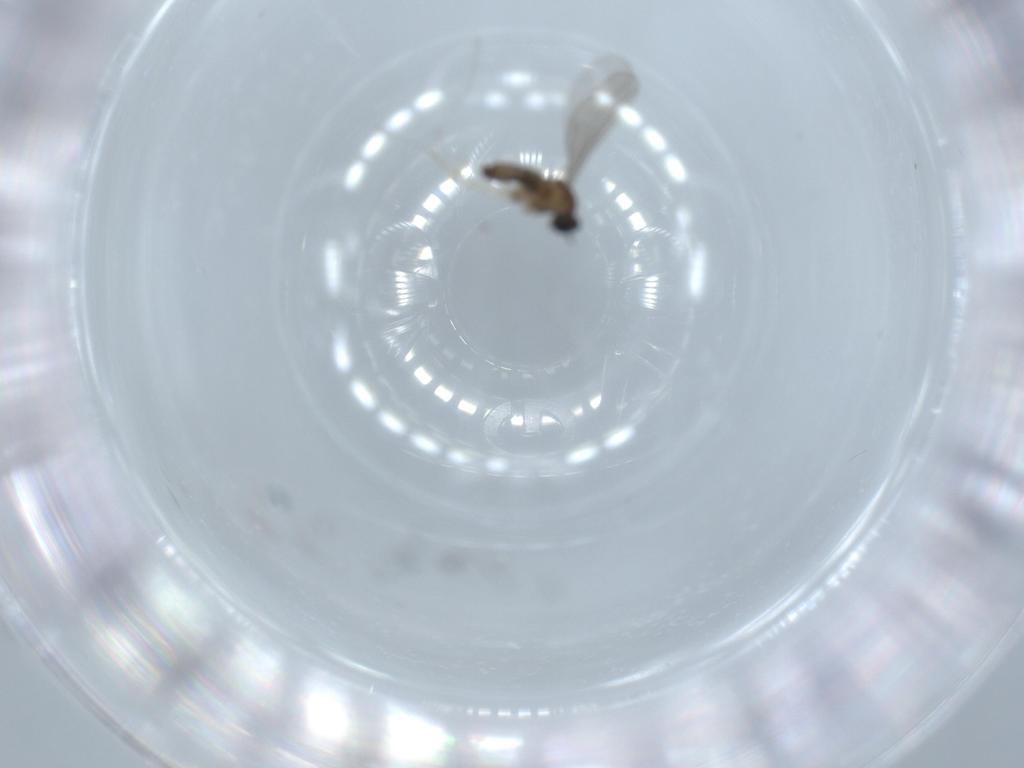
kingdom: Animalia
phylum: Arthropoda
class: Insecta
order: Diptera
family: Cecidomyiidae
